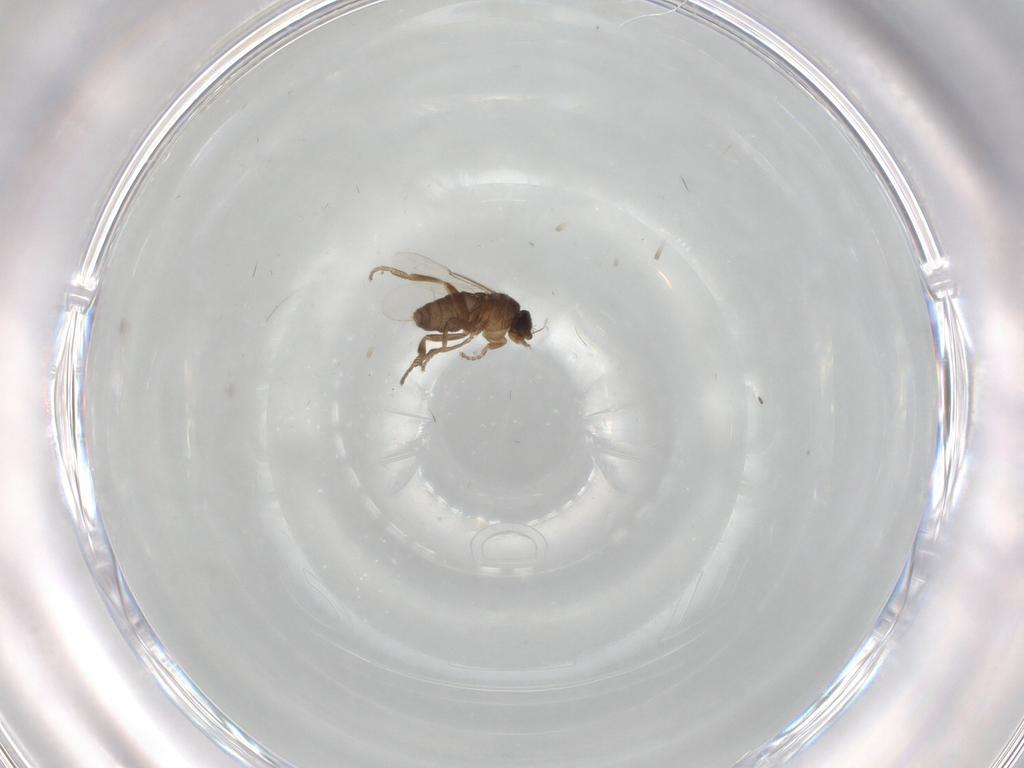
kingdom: Animalia
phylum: Arthropoda
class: Insecta
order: Diptera
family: Phoridae
